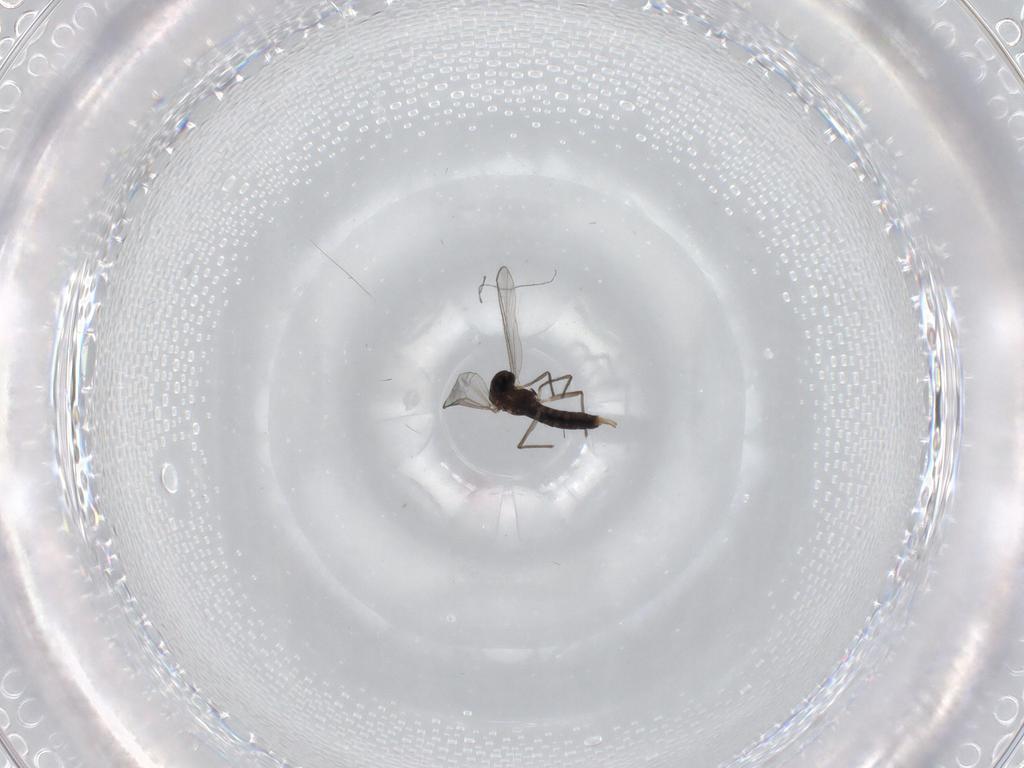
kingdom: Animalia
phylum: Arthropoda
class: Insecta
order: Diptera
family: Chironomidae
